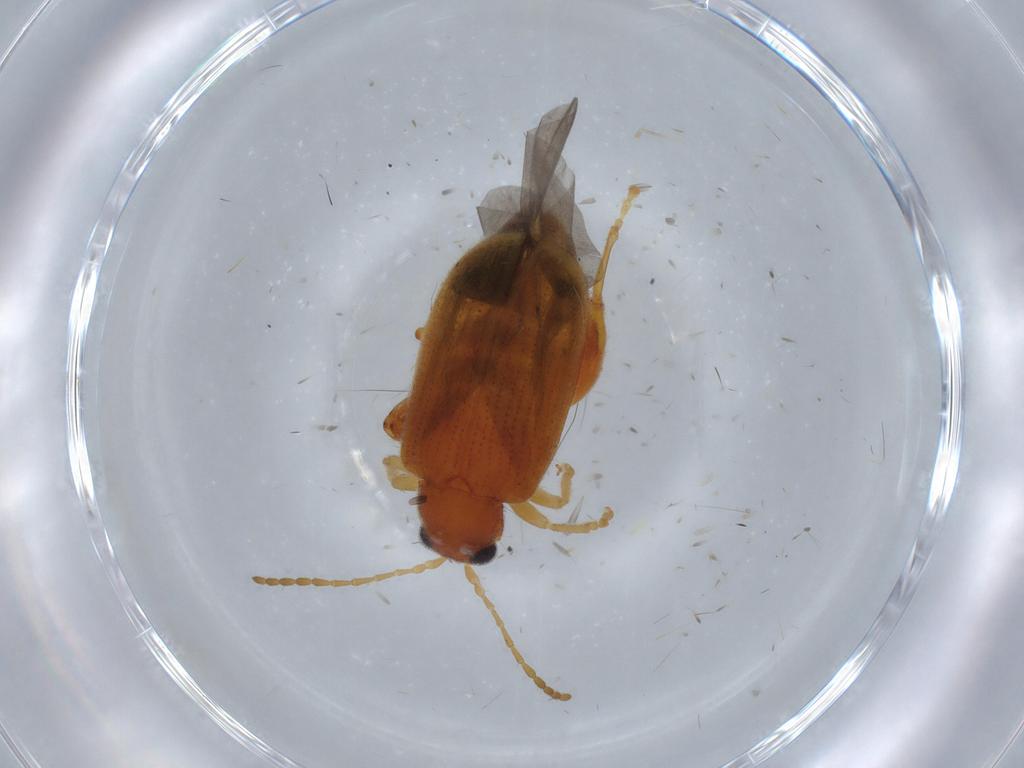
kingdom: Animalia
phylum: Arthropoda
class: Insecta
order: Coleoptera
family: Chrysomelidae
